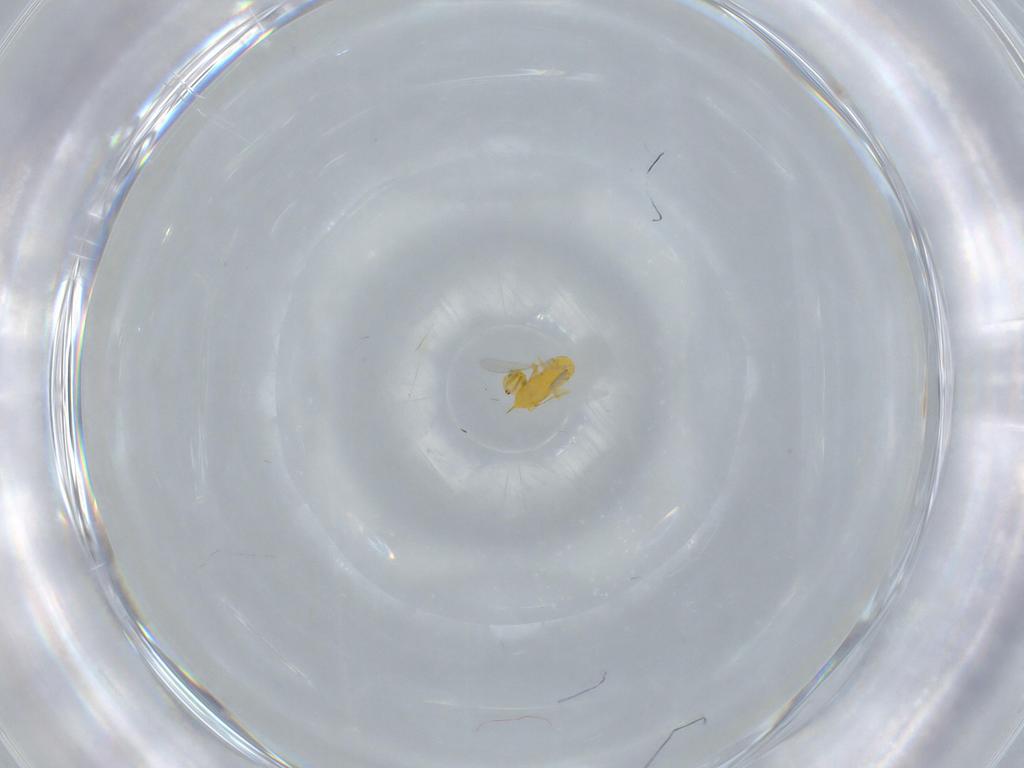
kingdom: Animalia
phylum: Arthropoda
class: Insecta
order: Hymenoptera
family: Aphelinidae
